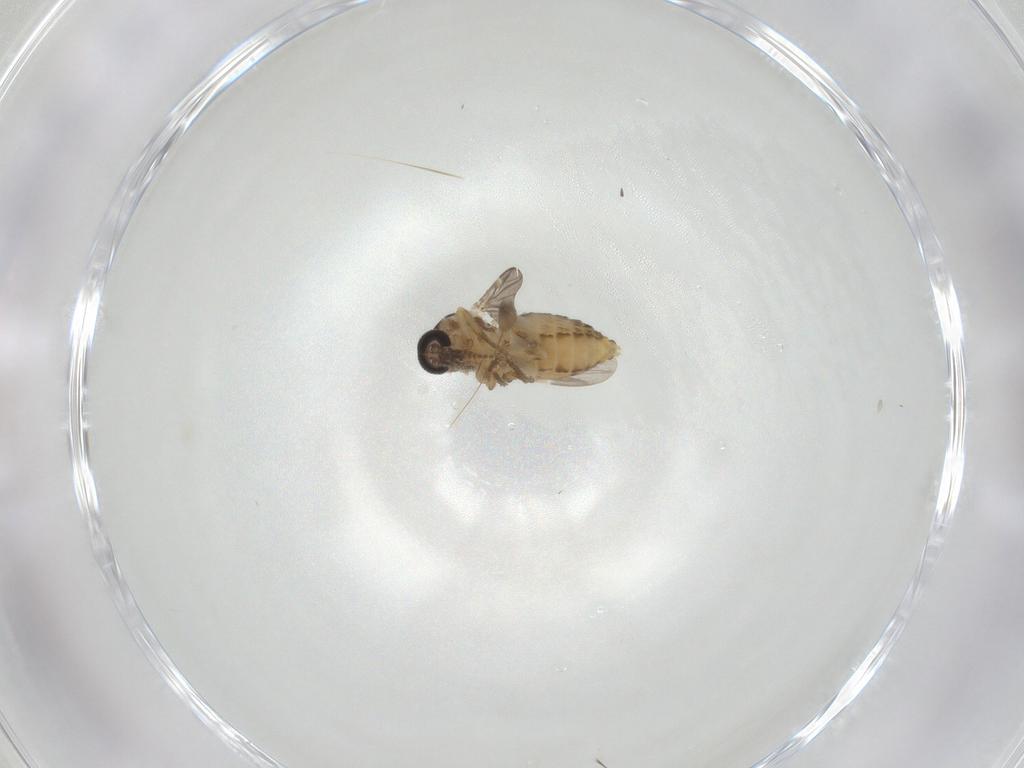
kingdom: Animalia
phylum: Arthropoda
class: Insecta
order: Diptera
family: Ceratopogonidae
